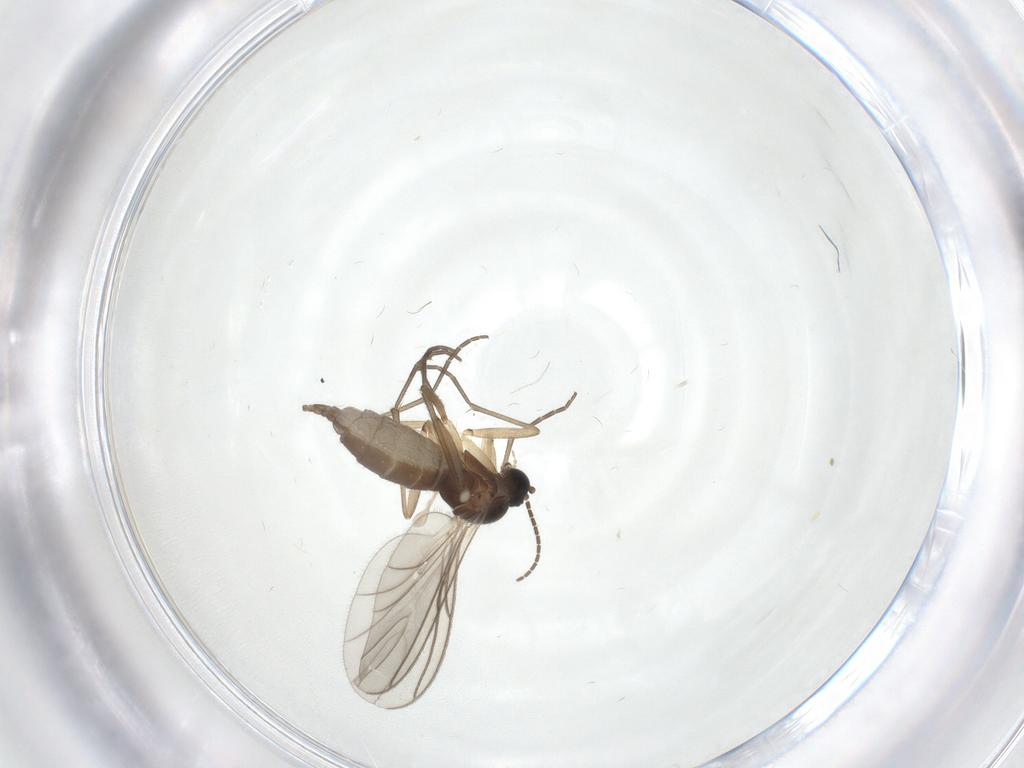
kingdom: Animalia
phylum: Arthropoda
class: Insecta
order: Diptera
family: Sciaridae
